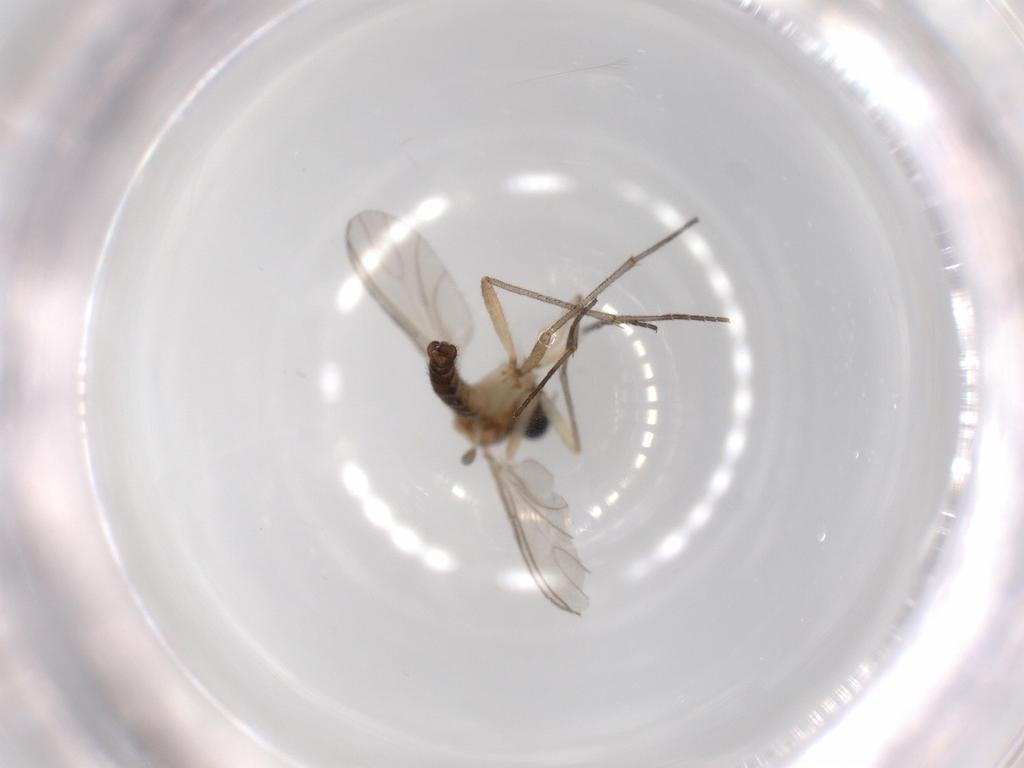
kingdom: Animalia
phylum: Arthropoda
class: Insecta
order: Diptera
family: Sciaridae
